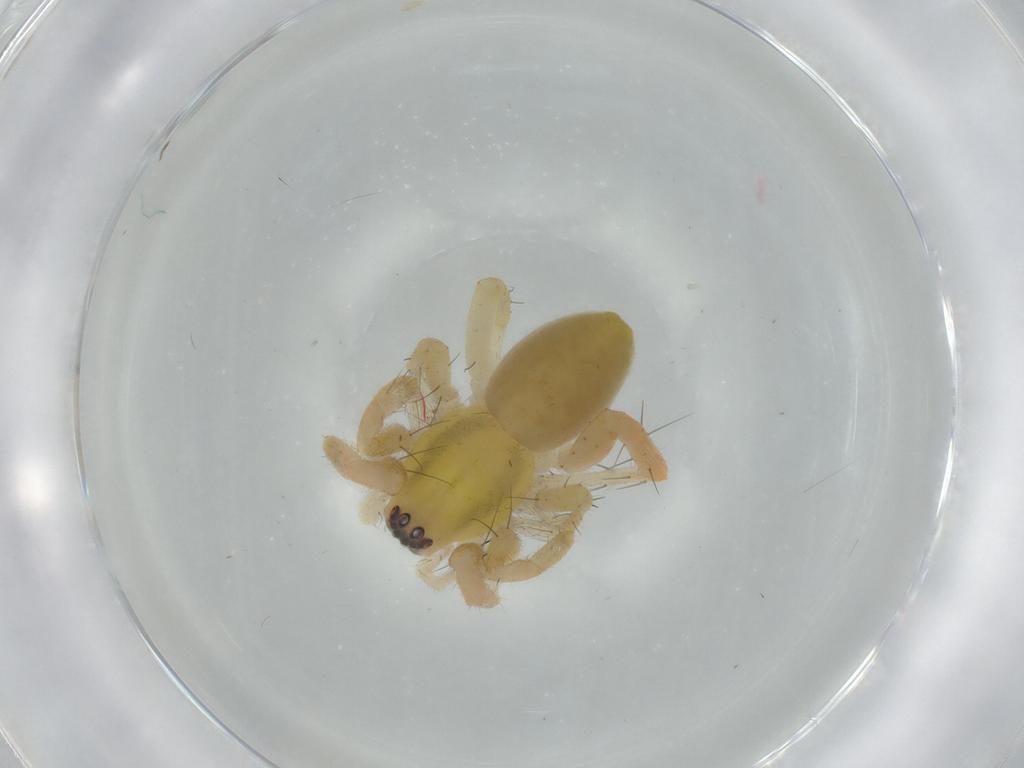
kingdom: Animalia
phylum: Arthropoda
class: Arachnida
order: Araneae
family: Anyphaenidae
